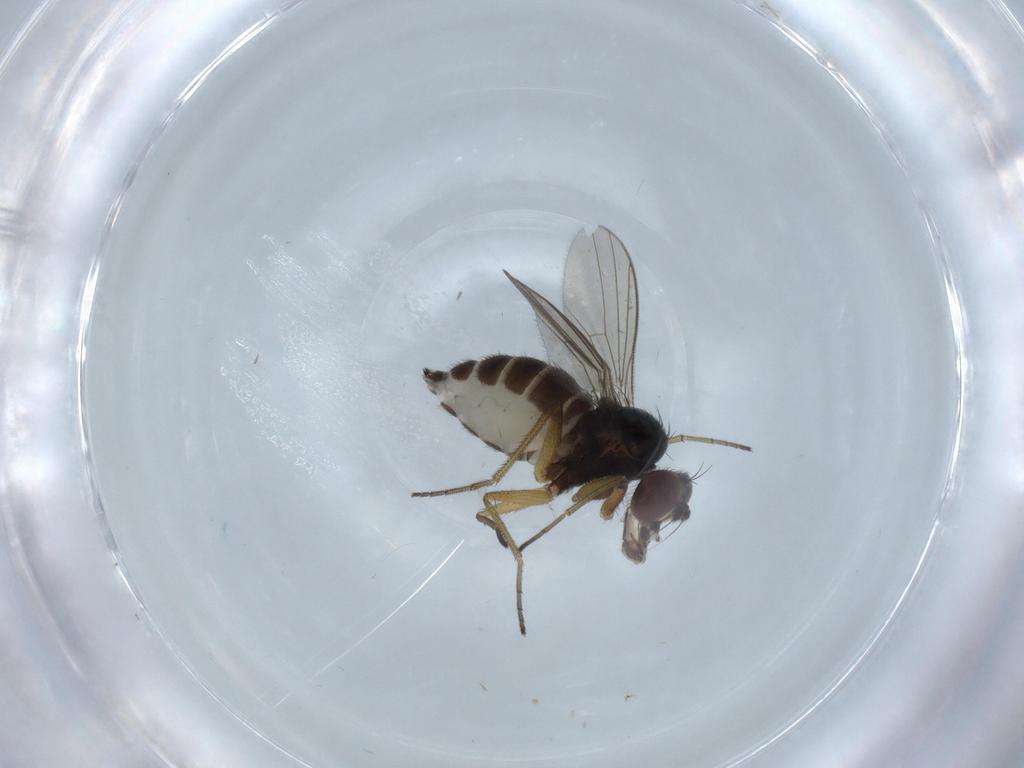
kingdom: Animalia
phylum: Arthropoda
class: Insecta
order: Diptera
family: Dolichopodidae
